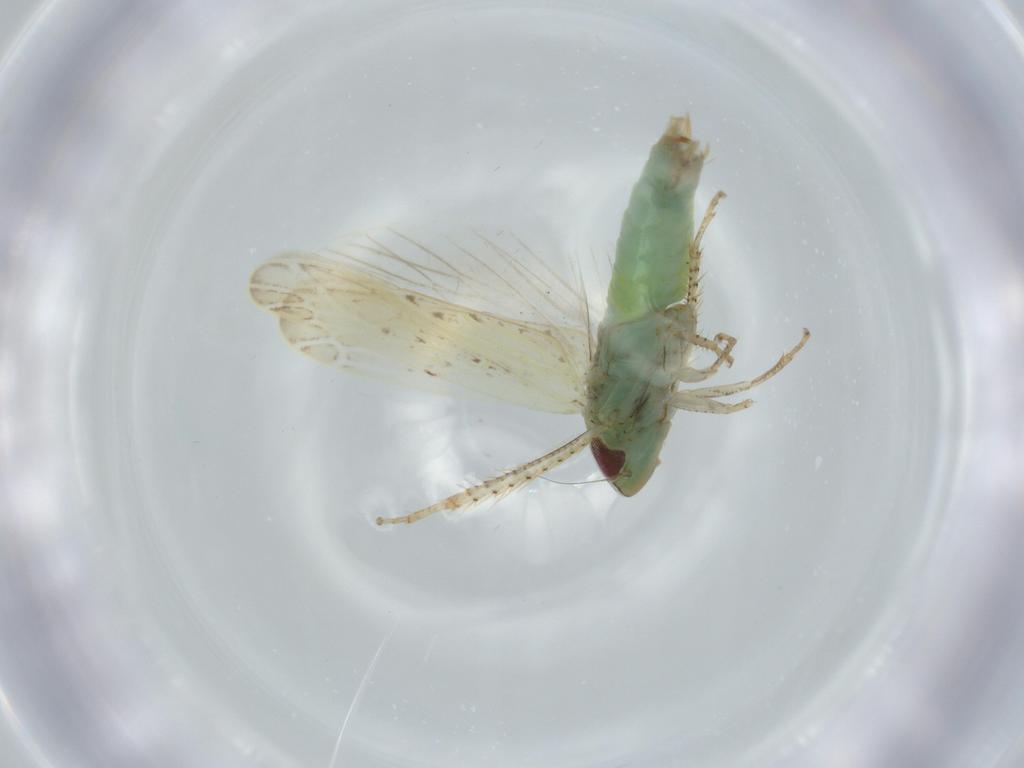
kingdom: Animalia
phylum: Arthropoda
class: Insecta
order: Hemiptera
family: Cicadellidae
